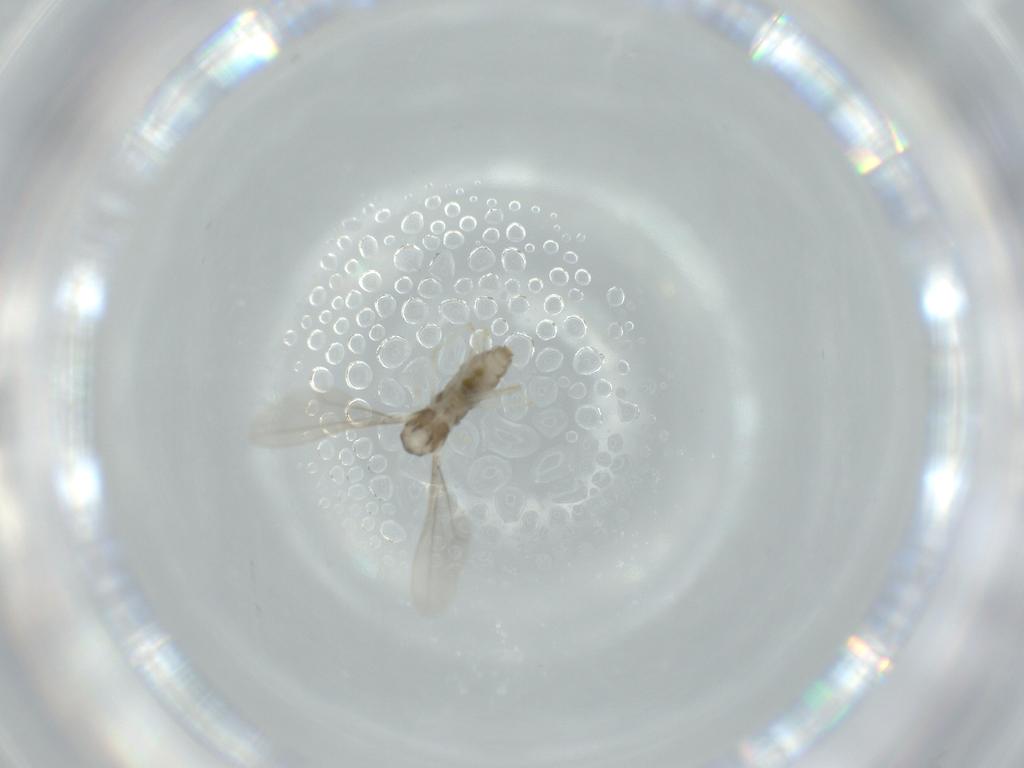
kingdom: Animalia
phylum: Arthropoda
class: Insecta
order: Diptera
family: Cecidomyiidae
